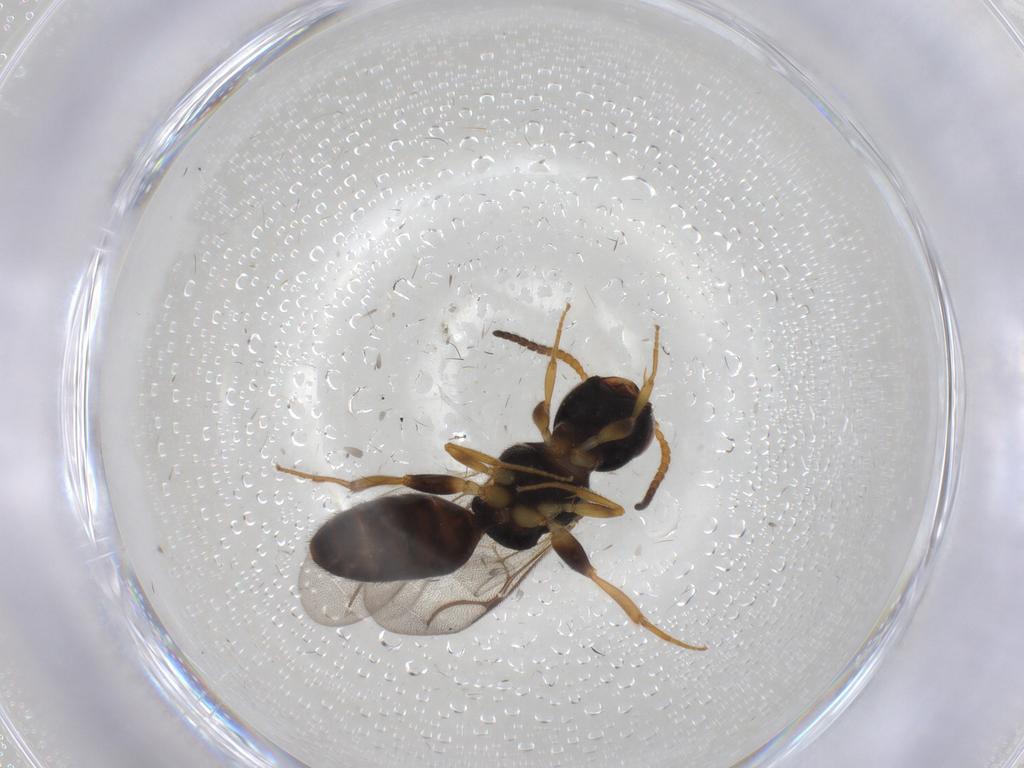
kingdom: Animalia
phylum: Arthropoda
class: Insecta
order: Hymenoptera
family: Bethylidae
